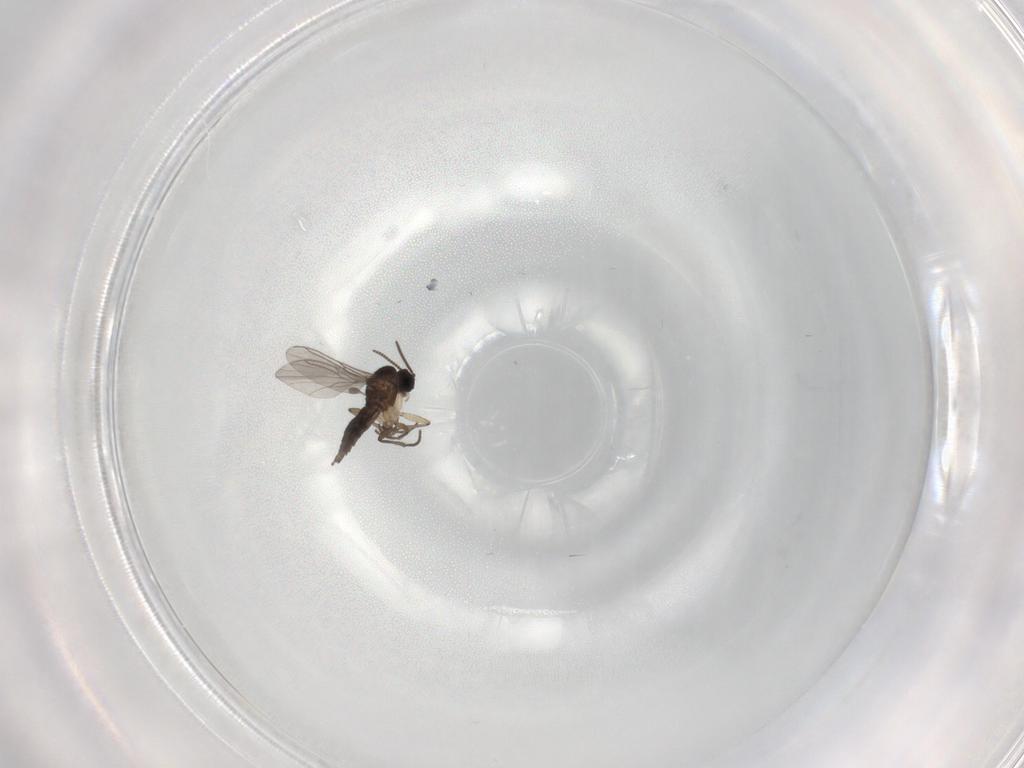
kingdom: Animalia
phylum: Arthropoda
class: Insecta
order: Diptera
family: Sciaridae
